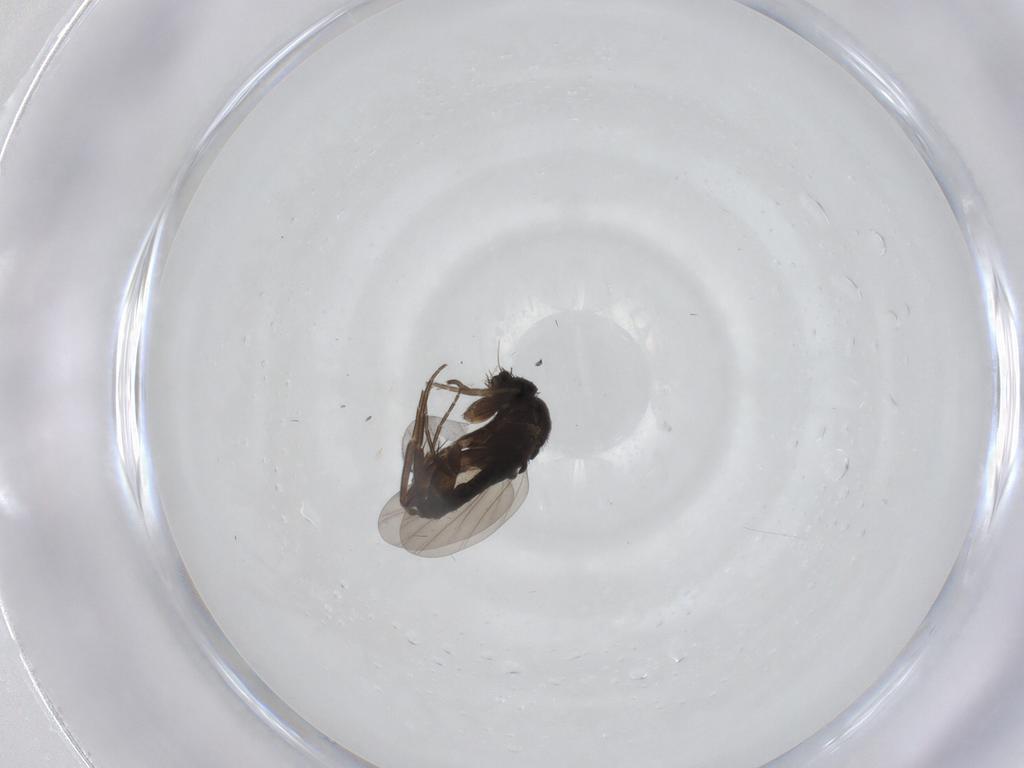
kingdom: Animalia
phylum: Arthropoda
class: Insecta
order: Diptera
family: Phoridae
